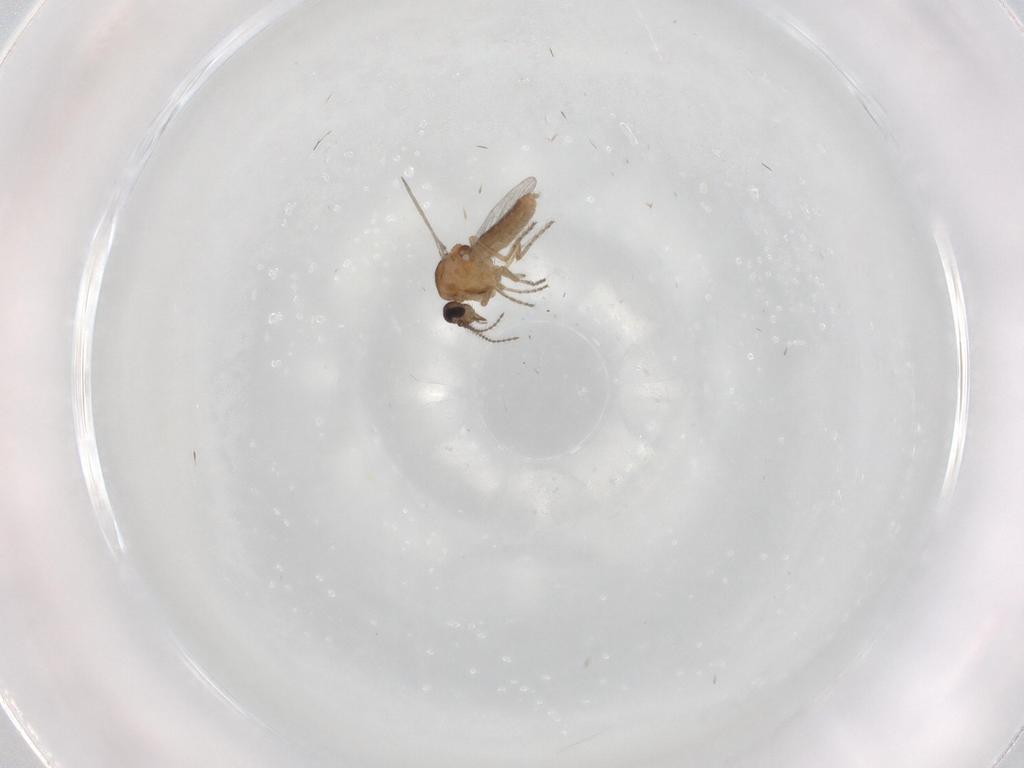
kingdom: Animalia
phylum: Arthropoda
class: Insecta
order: Diptera
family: Ceratopogonidae
